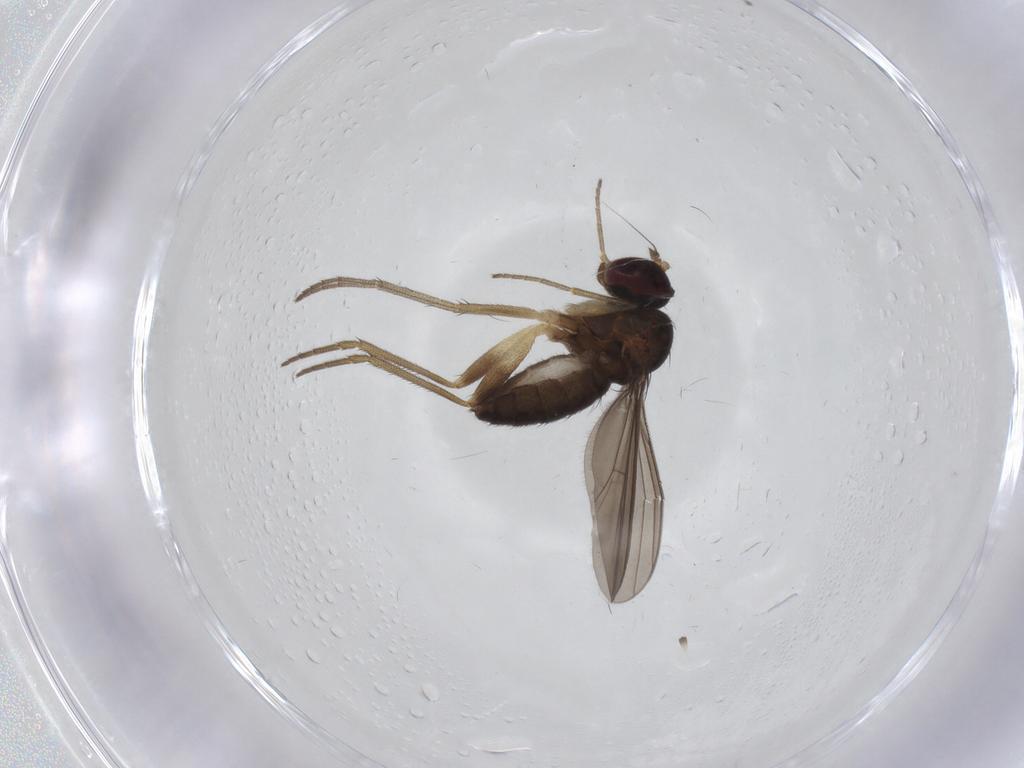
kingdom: Animalia
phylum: Arthropoda
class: Insecta
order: Diptera
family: Dolichopodidae
